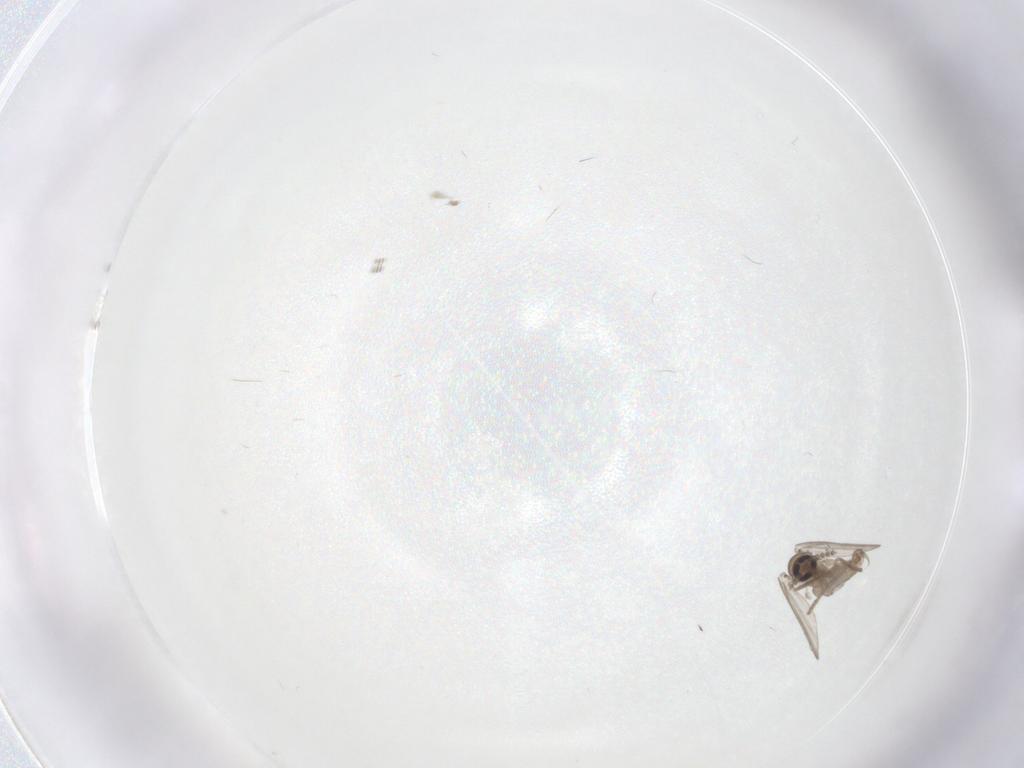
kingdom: Animalia
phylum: Arthropoda
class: Insecta
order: Diptera
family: Psychodidae
